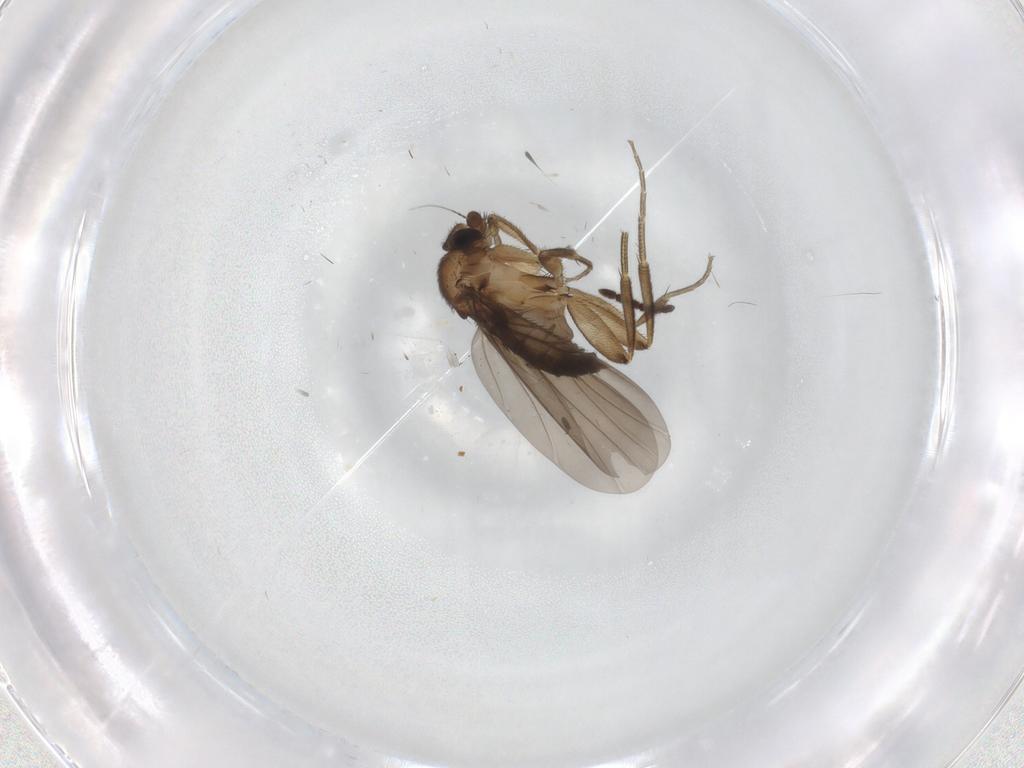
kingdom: Animalia
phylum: Arthropoda
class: Insecta
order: Diptera
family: Phoridae
